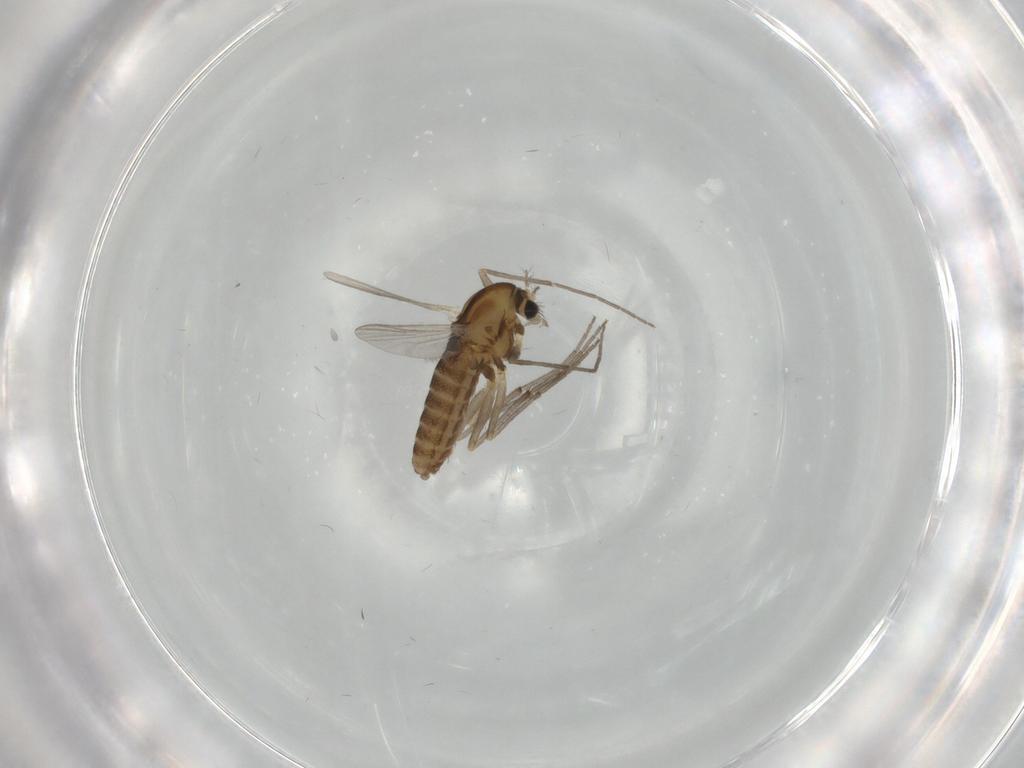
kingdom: Animalia
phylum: Arthropoda
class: Insecta
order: Diptera
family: Chironomidae
